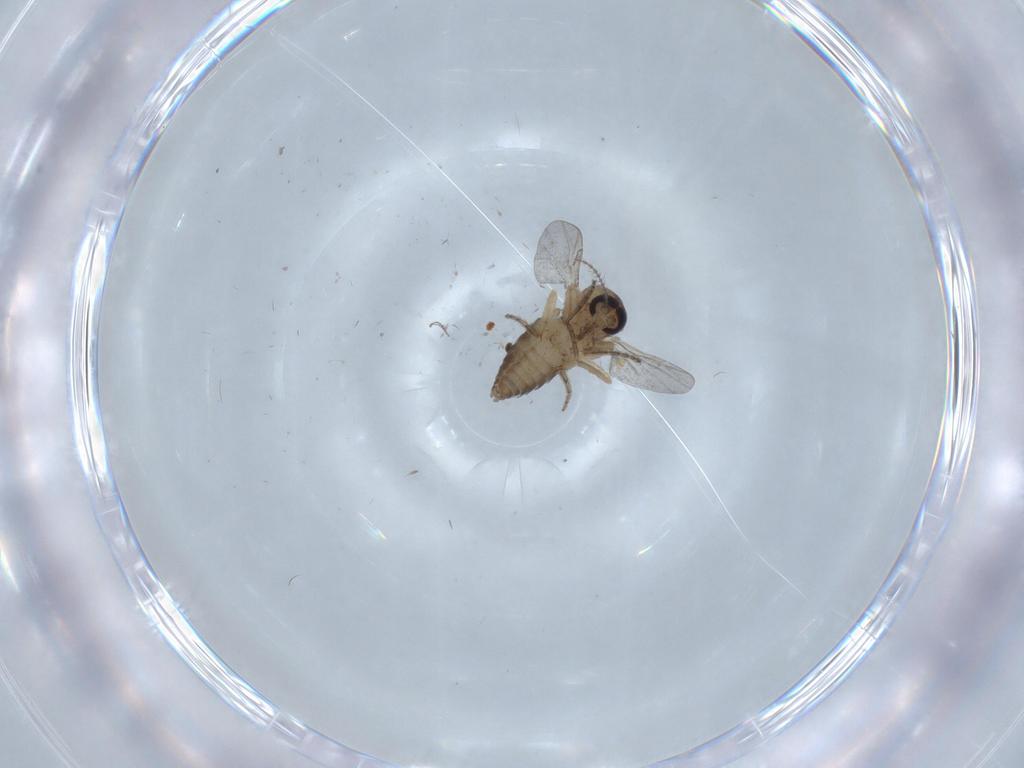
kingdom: Animalia
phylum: Arthropoda
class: Insecta
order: Diptera
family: Ceratopogonidae
